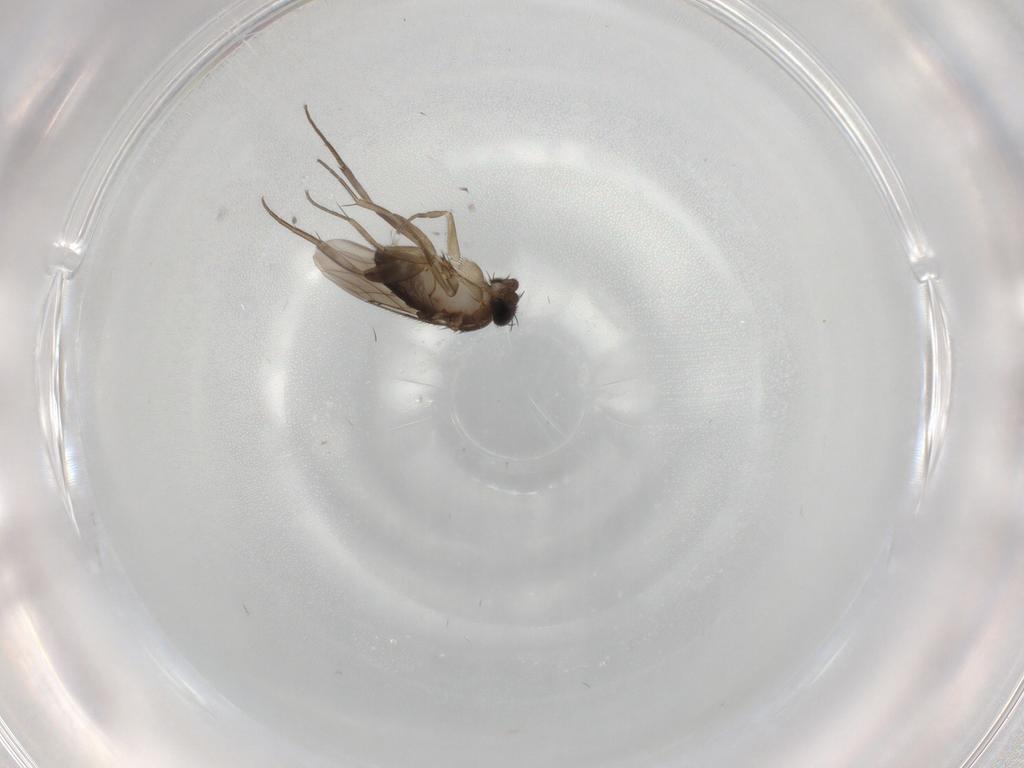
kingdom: Animalia
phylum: Arthropoda
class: Insecta
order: Diptera
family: Phoridae
